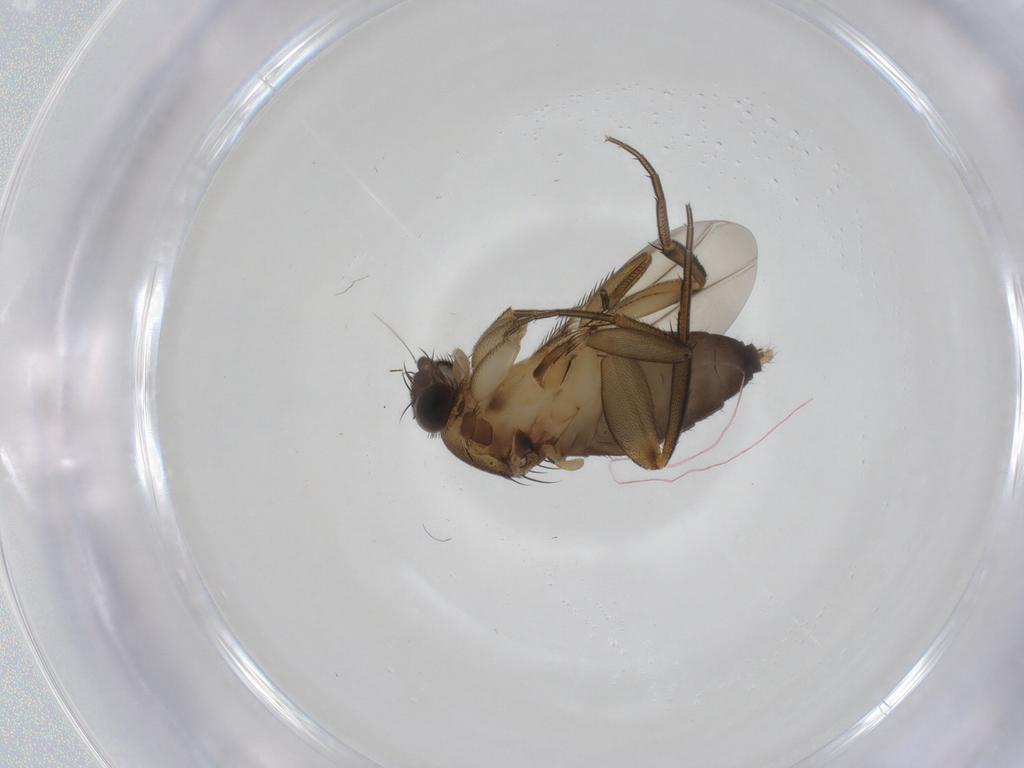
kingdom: Animalia
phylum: Arthropoda
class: Insecta
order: Diptera
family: Phoridae
